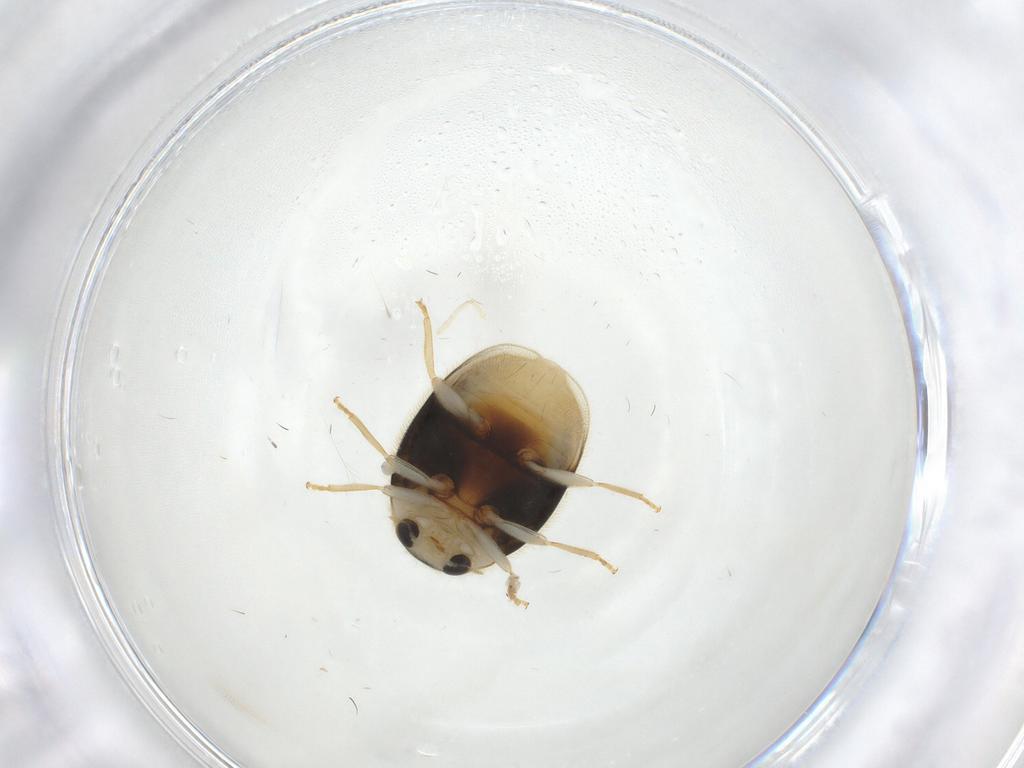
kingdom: Animalia
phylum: Arthropoda
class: Insecta
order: Coleoptera
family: Coccinellidae
